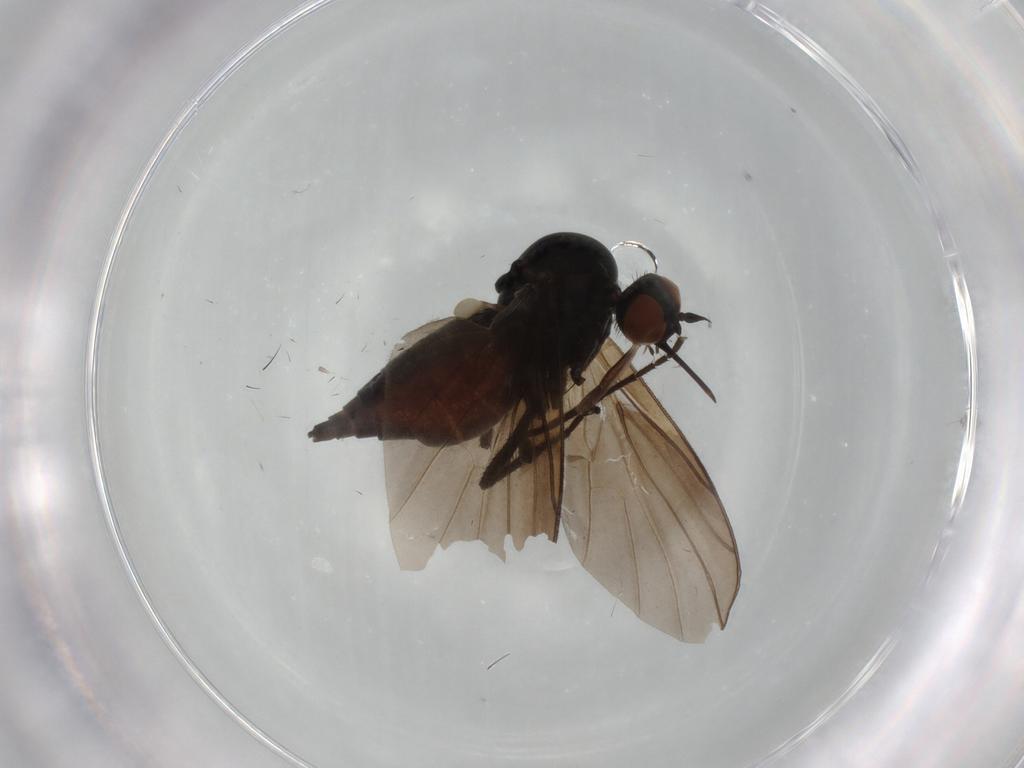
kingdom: Animalia
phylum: Arthropoda
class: Insecta
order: Diptera
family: Empididae
